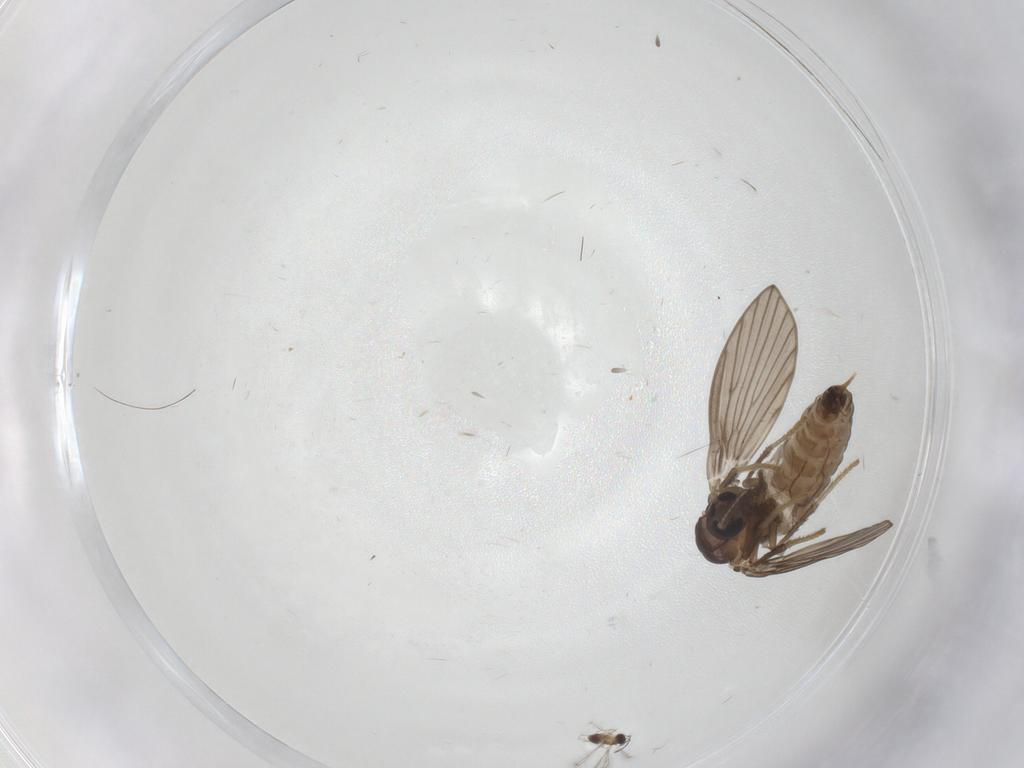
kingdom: Animalia
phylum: Arthropoda
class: Insecta
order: Diptera
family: Psychodidae
